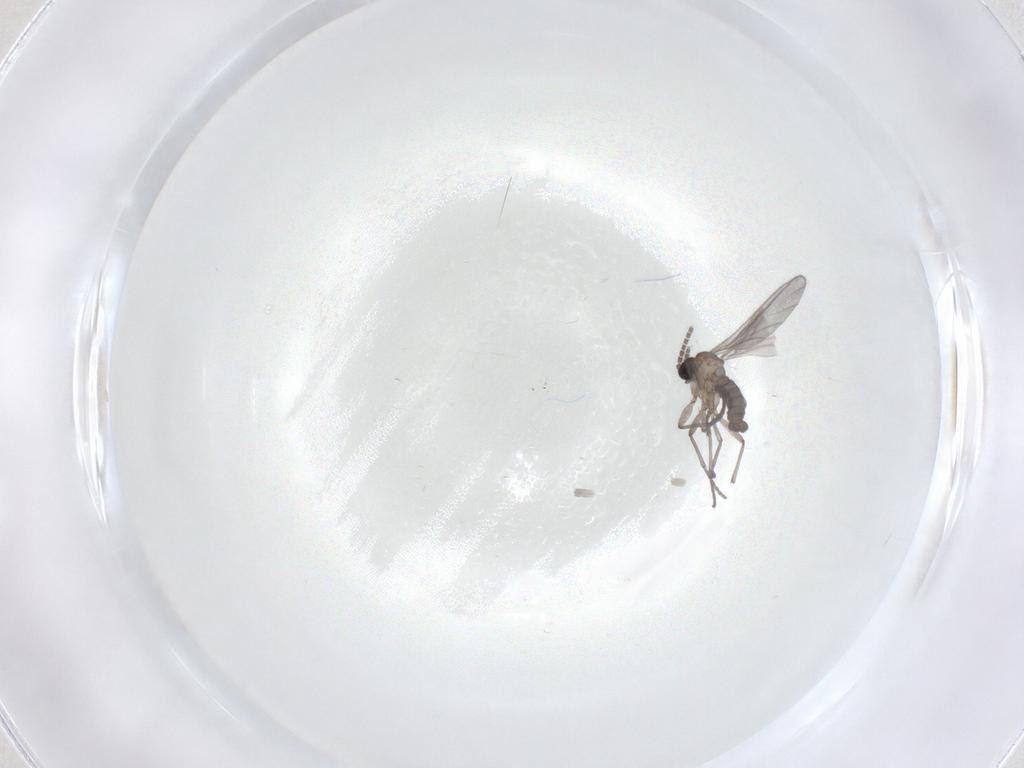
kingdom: Animalia
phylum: Arthropoda
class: Insecta
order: Diptera
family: Sciaridae
